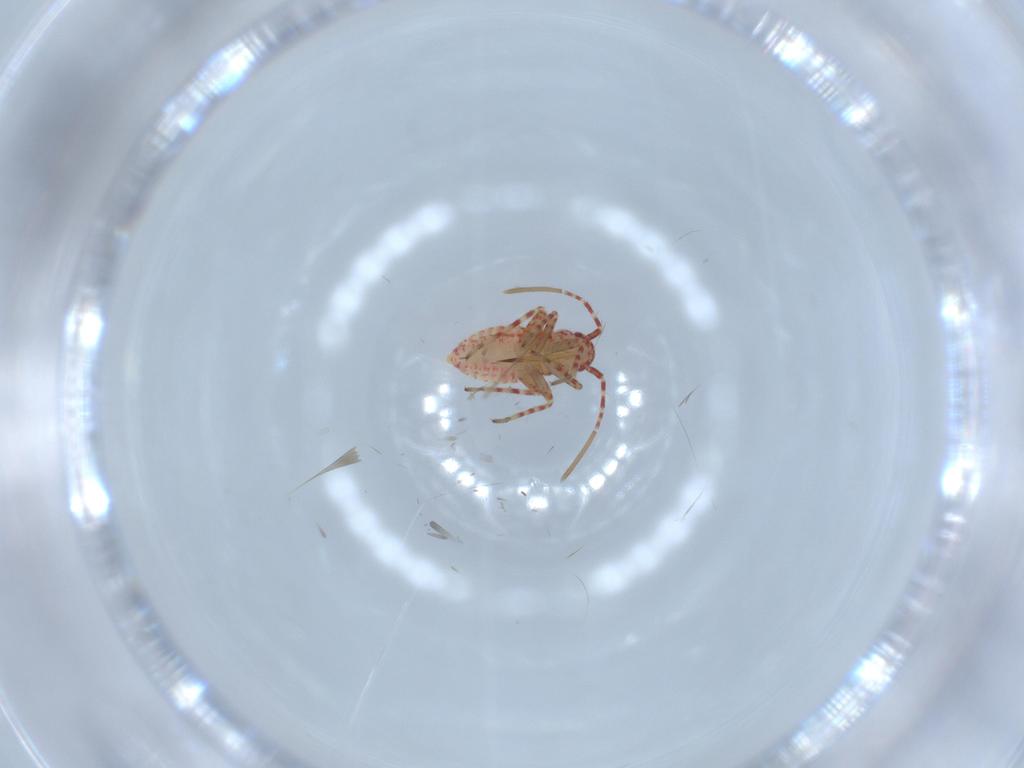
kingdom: Animalia
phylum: Arthropoda
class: Insecta
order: Hemiptera
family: Miridae
